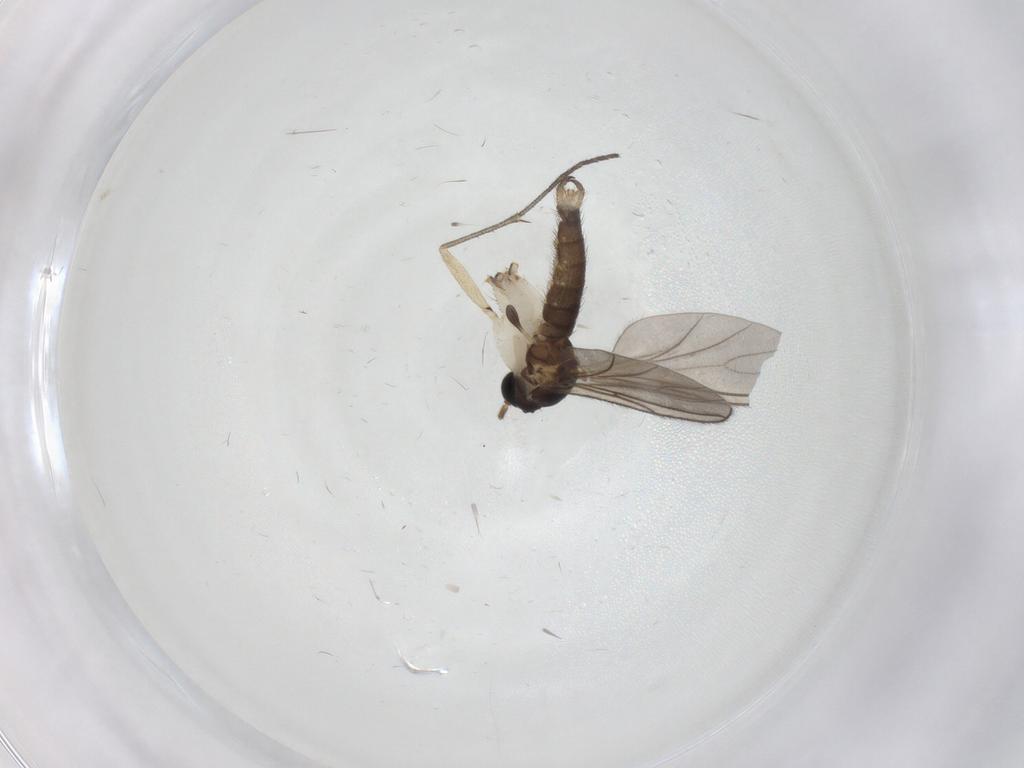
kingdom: Animalia
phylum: Arthropoda
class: Insecta
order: Diptera
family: Sciaridae
